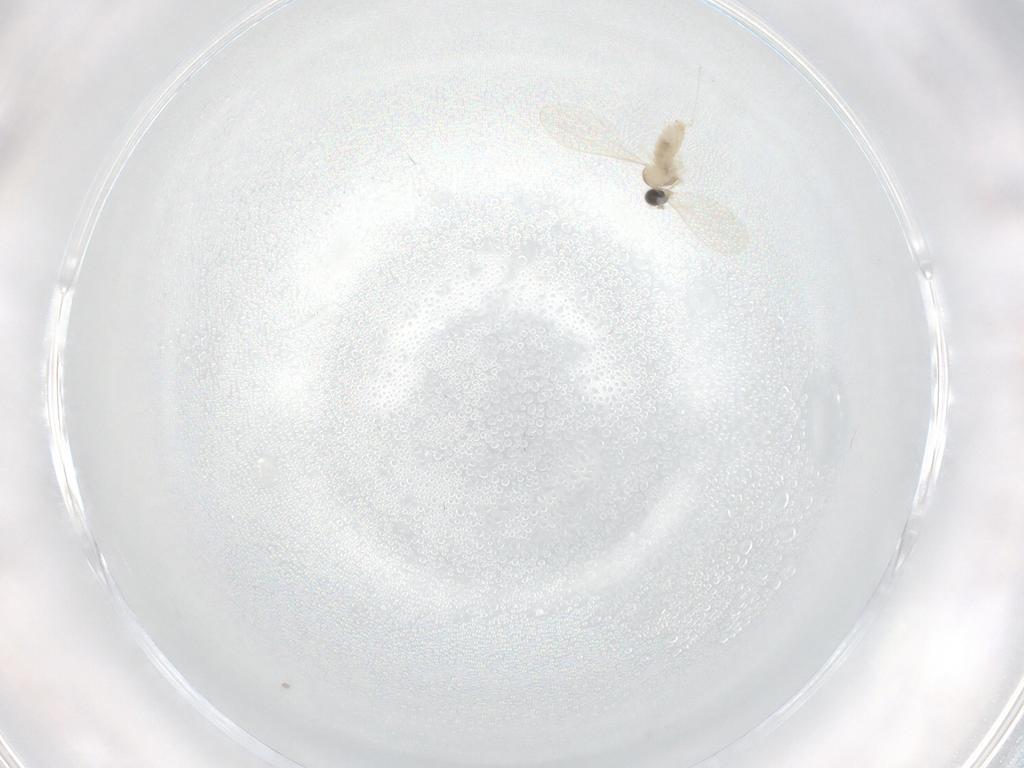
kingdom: Animalia
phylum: Arthropoda
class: Insecta
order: Diptera
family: Cecidomyiidae
